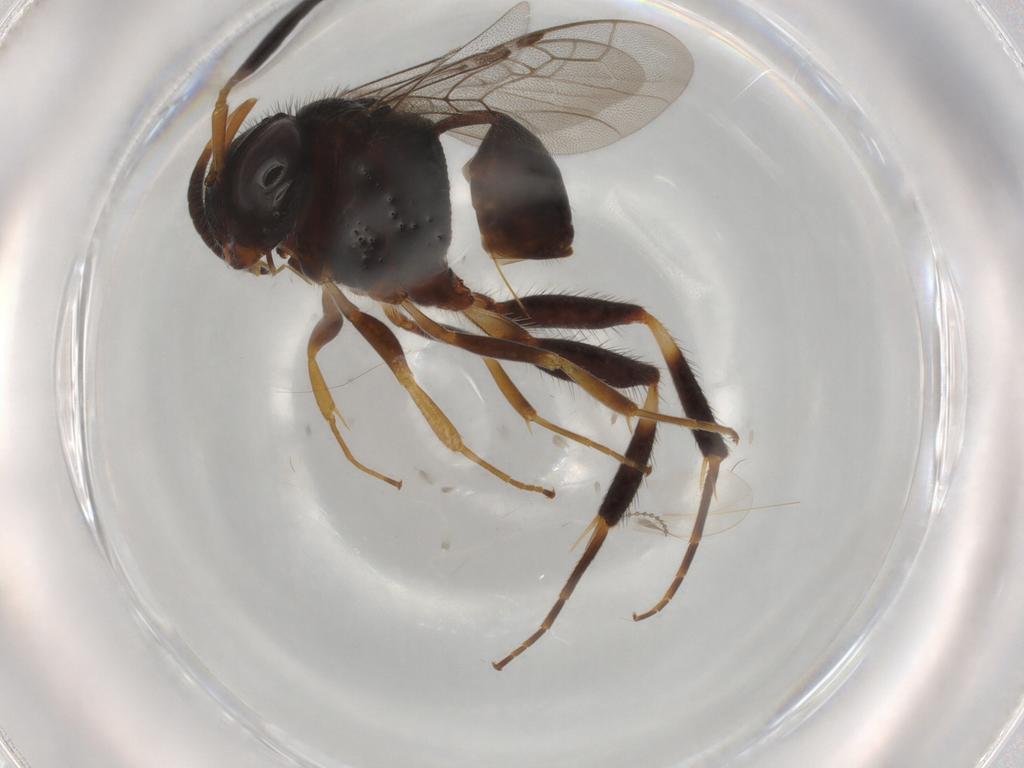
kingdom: Animalia
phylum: Arthropoda
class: Insecta
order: Hymenoptera
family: Evaniidae
